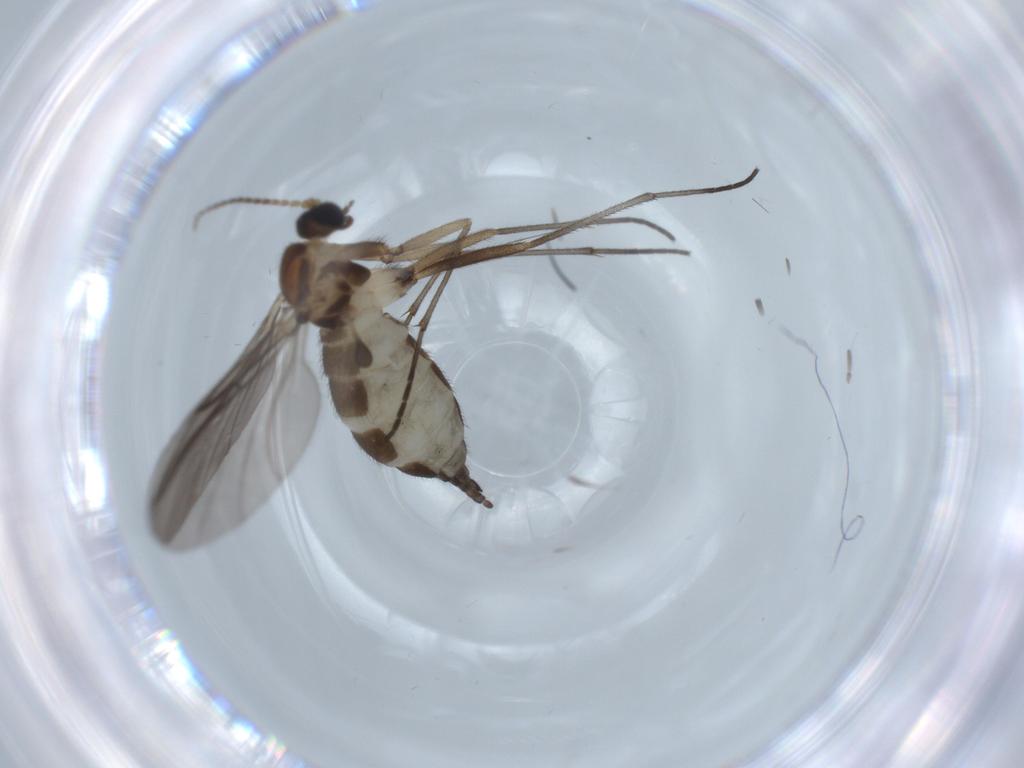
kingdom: Animalia
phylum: Arthropoda
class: Insecta
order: Diptera
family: Sciaridae
